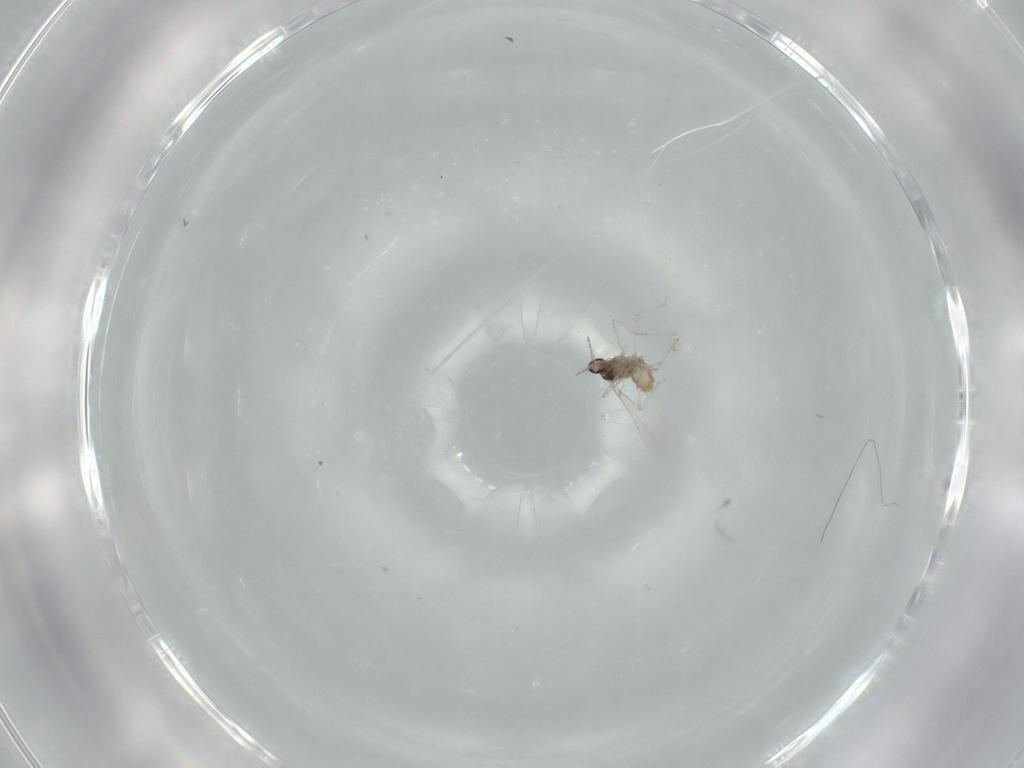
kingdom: Animalia
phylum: Arthropoda
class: Insecta
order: Diptera
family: Cecidomyiidae
